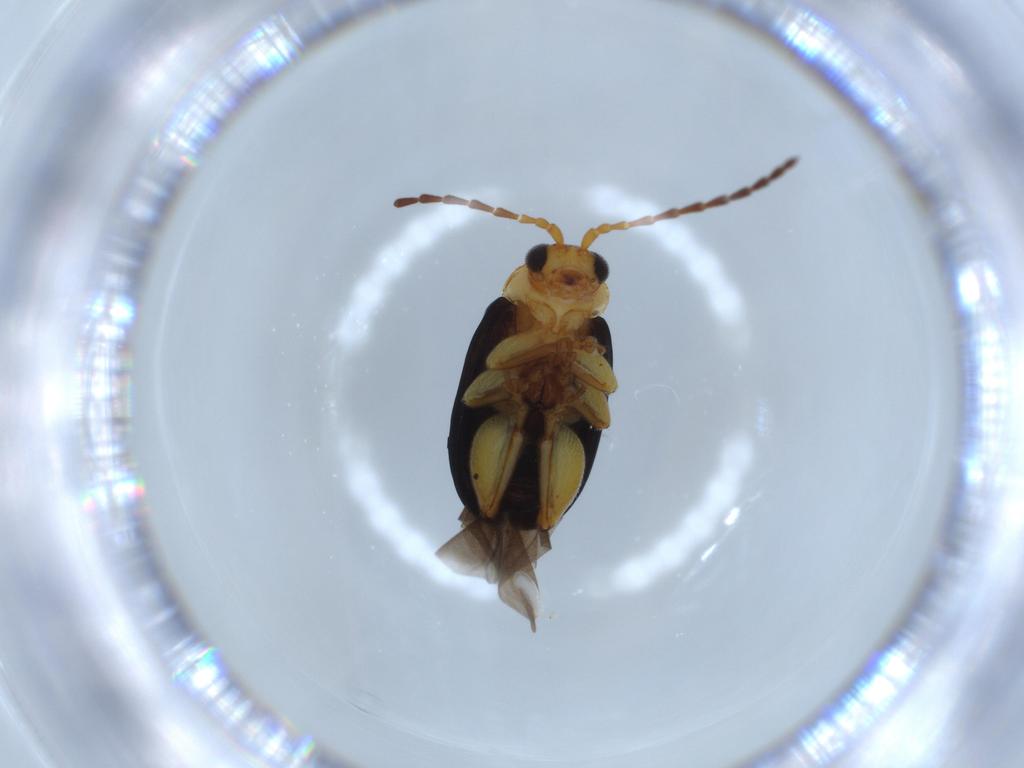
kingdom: Animalia
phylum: Arthropoda
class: Insecta
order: Coleoptera
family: Chrysomelidae
